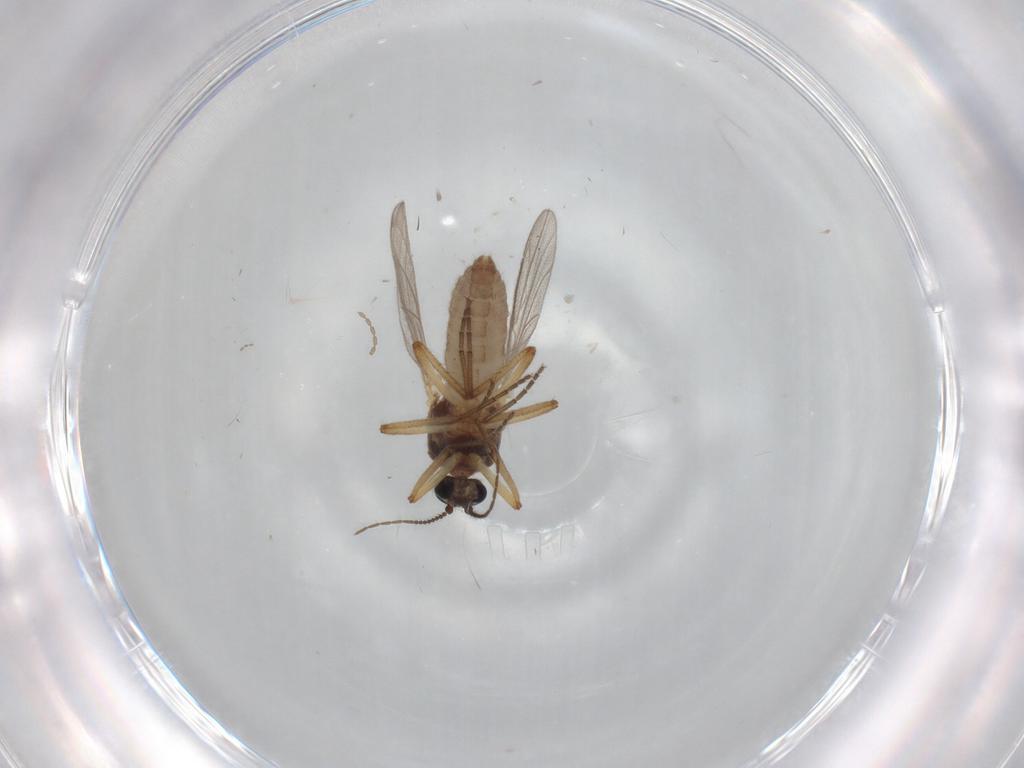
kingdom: Animalia
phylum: Arthropoda
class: Insecta
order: Diptera
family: Ceratopogonidae
